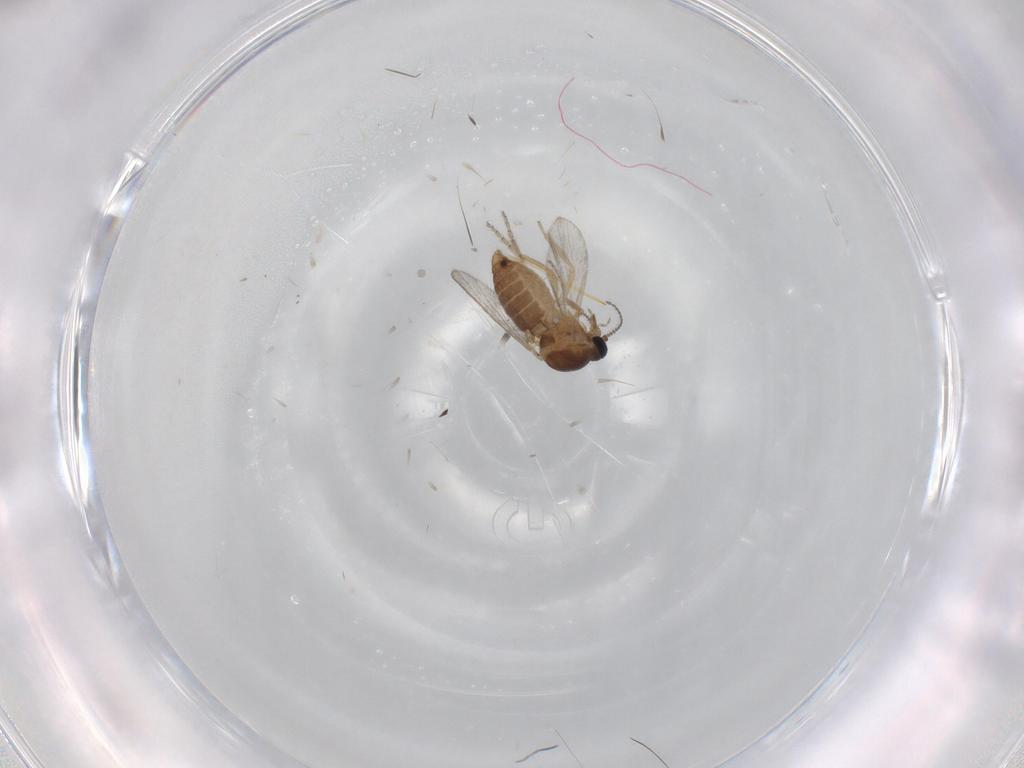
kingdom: Animalia
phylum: Arthropoda
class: Insecta
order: Diptera
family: Ceratopogonidae
